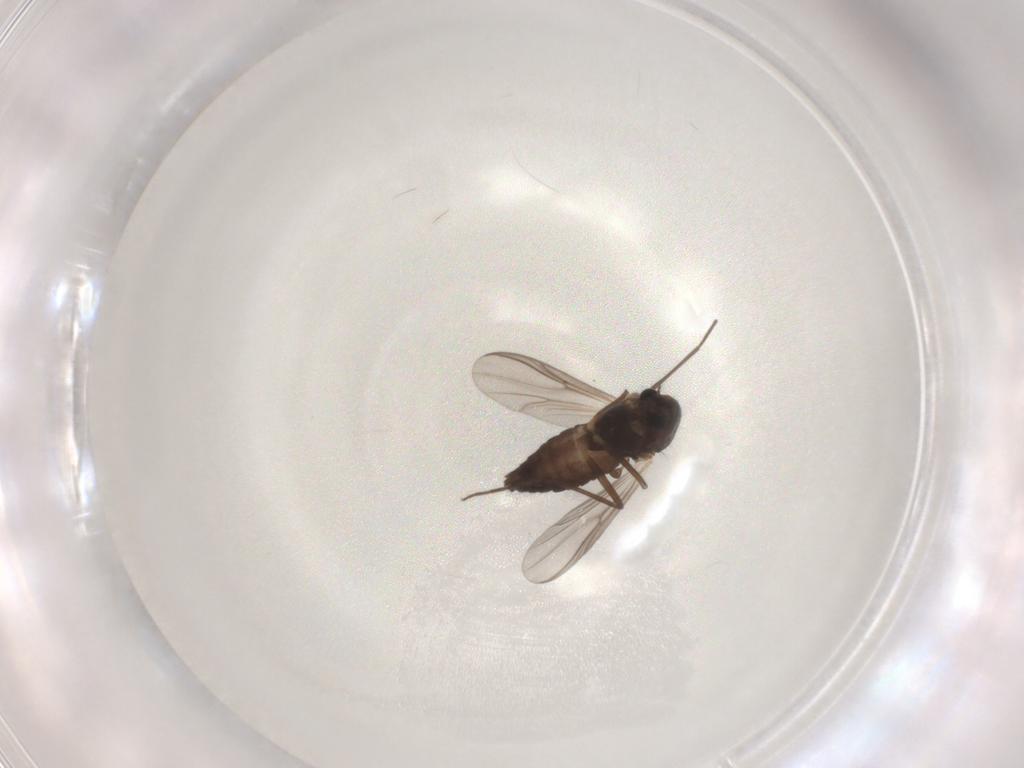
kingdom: Animalia
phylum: Arthropoda
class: Insecta
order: Diptera
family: Chironomidae
